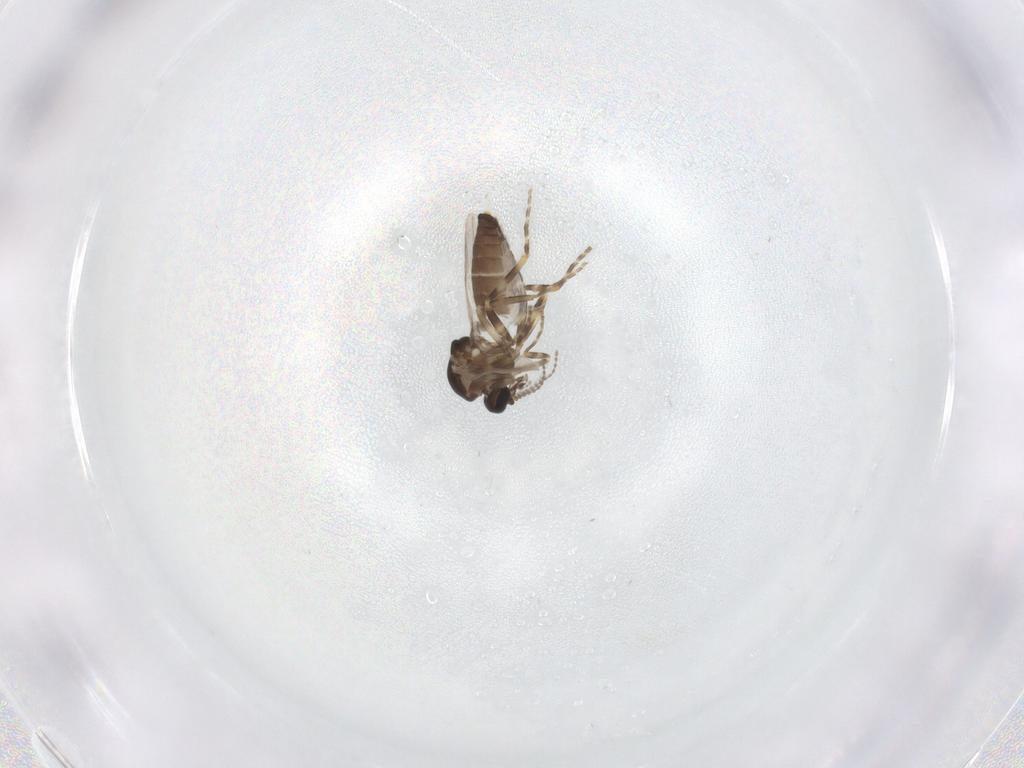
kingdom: Animalia
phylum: Arthropoda
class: Insecta
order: Diptera
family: Ceratopogonidae
